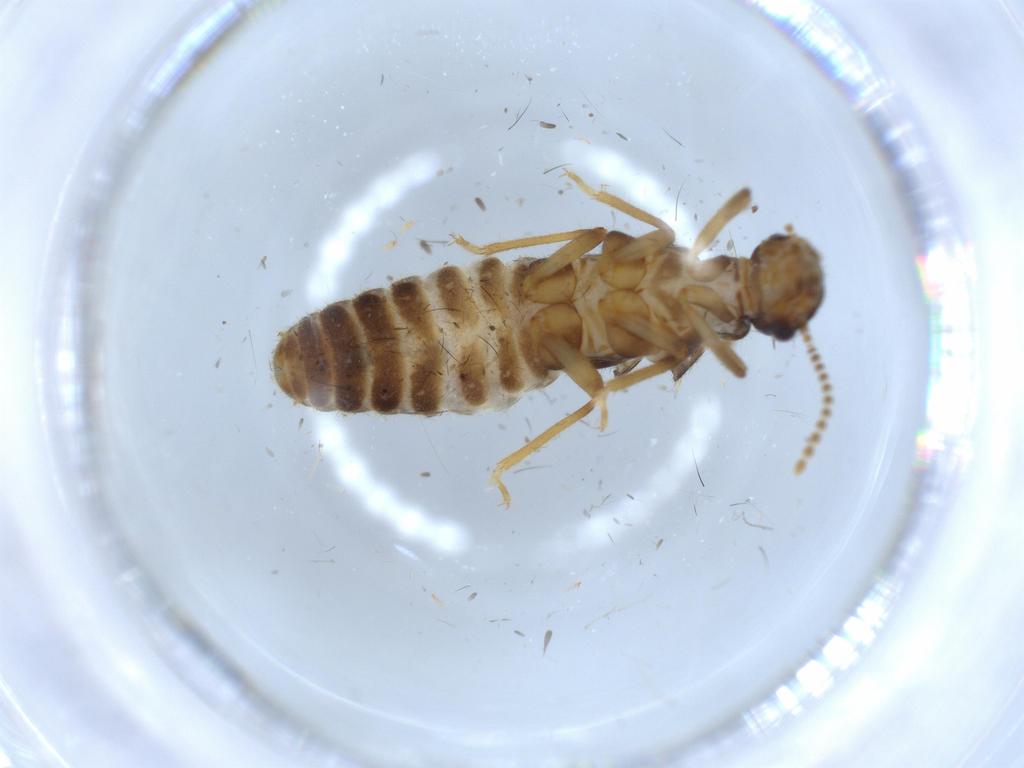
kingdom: Animalia
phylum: Arthropoda
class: Insecta
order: Blattodea
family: Termitidae
